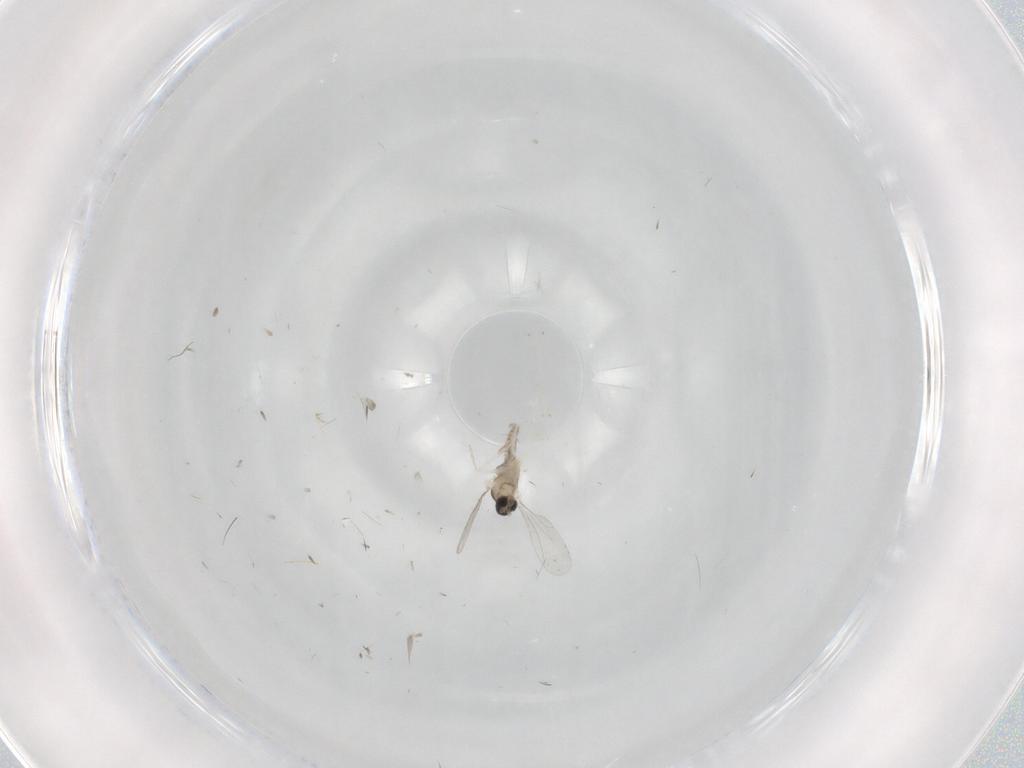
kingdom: Animalia
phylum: Arthropoda
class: Insecta
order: Diptera
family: Cecidomyiidae
